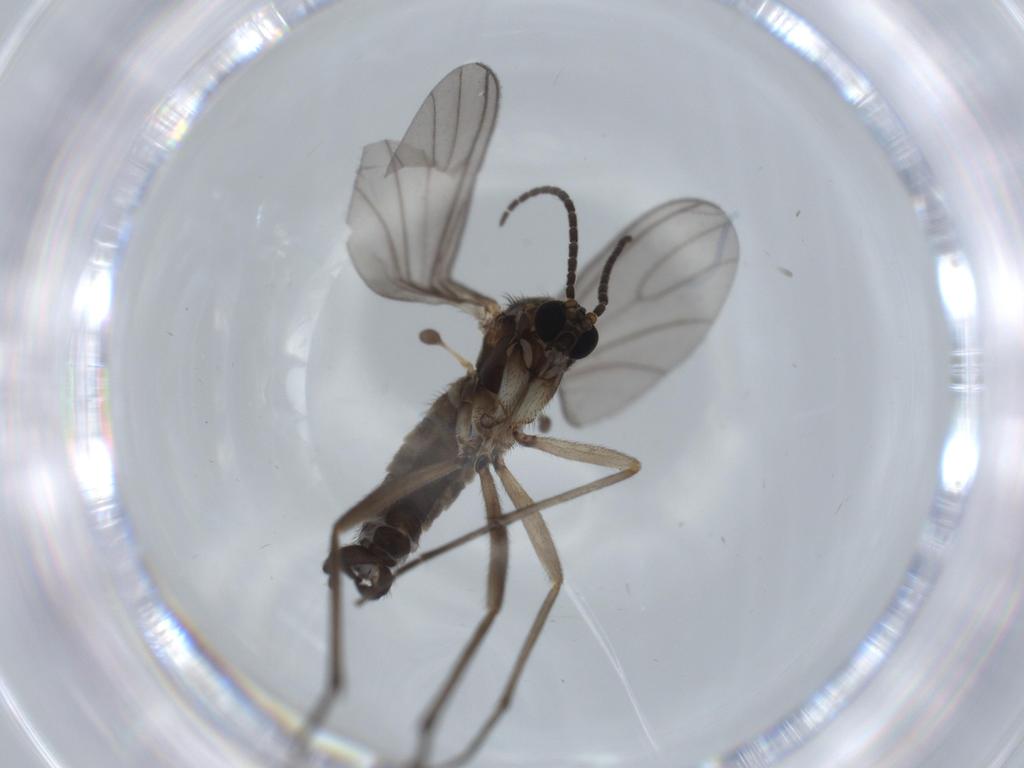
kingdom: Animalia
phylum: Arthropoda
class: Insecta
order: Diptera
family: Sciaridae
